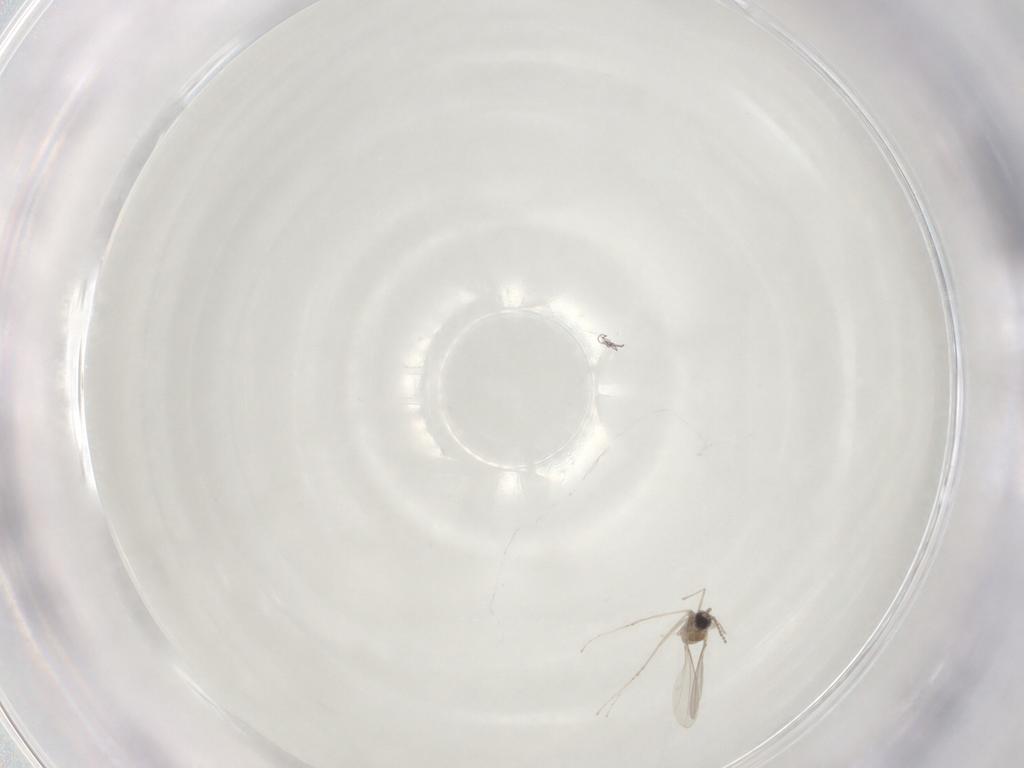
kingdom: Animalia
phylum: Arthropoda
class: Insecta
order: Diptera
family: Cecidomyiidae
